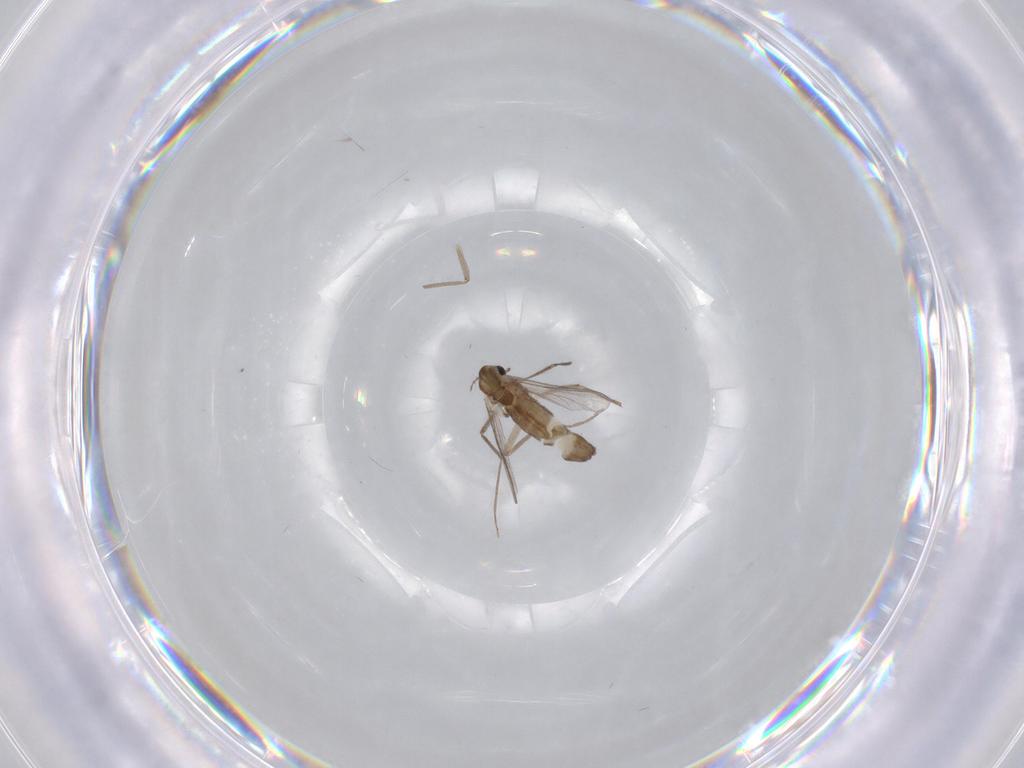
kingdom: Animalia
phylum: Arthropoda
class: Insecta
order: Diptera
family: Chironomidae
